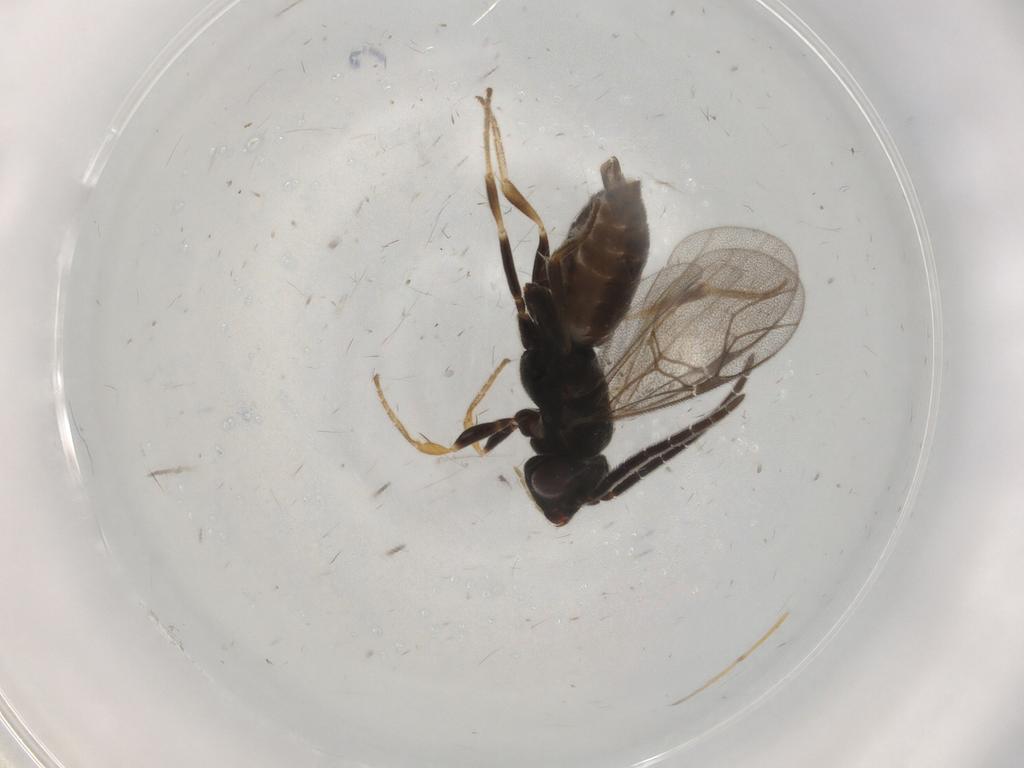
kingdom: Animalia
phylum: Arthropoda
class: Insecta
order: Hymenoptera
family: Dryinidae
